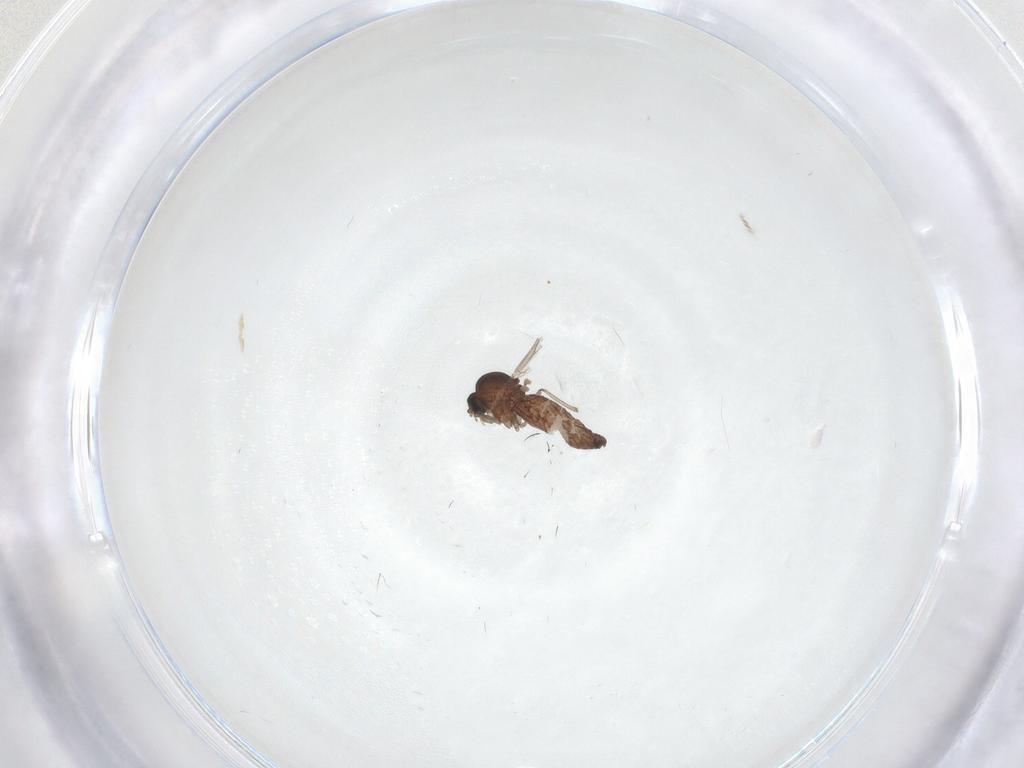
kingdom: Animalia
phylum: Arthropoda
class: Insecta
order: Diptera
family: Ceratopogonidae
